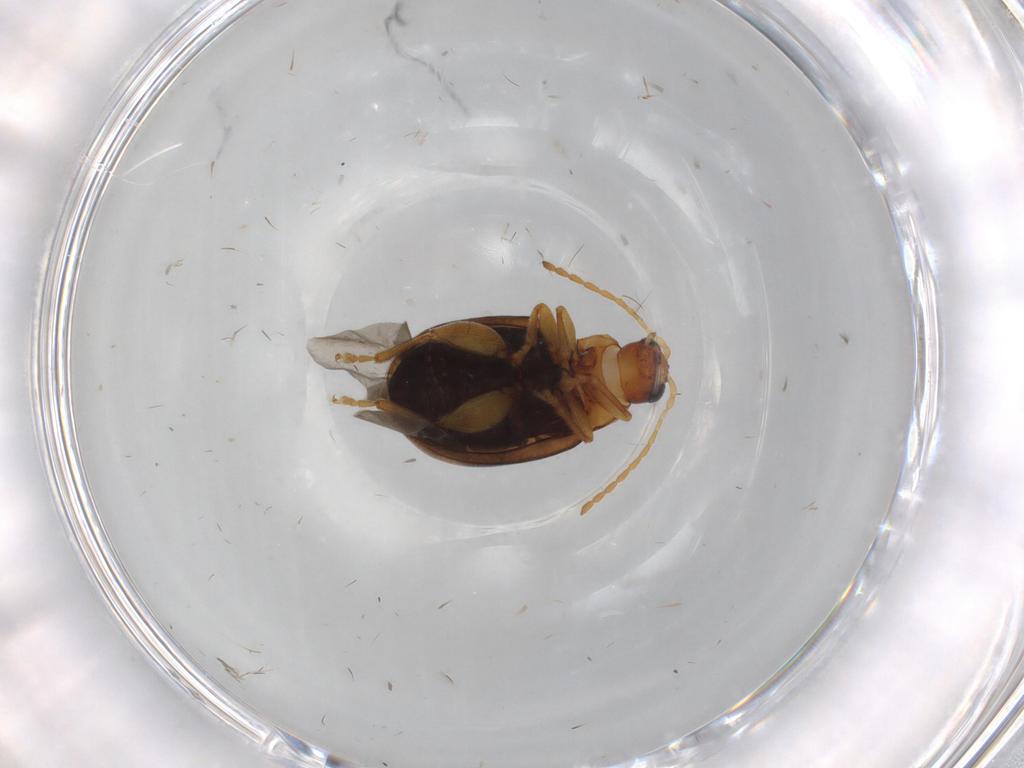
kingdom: Animalia
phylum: Arthropoda
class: Insecta
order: Coleoptera
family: Chrysomelidae
